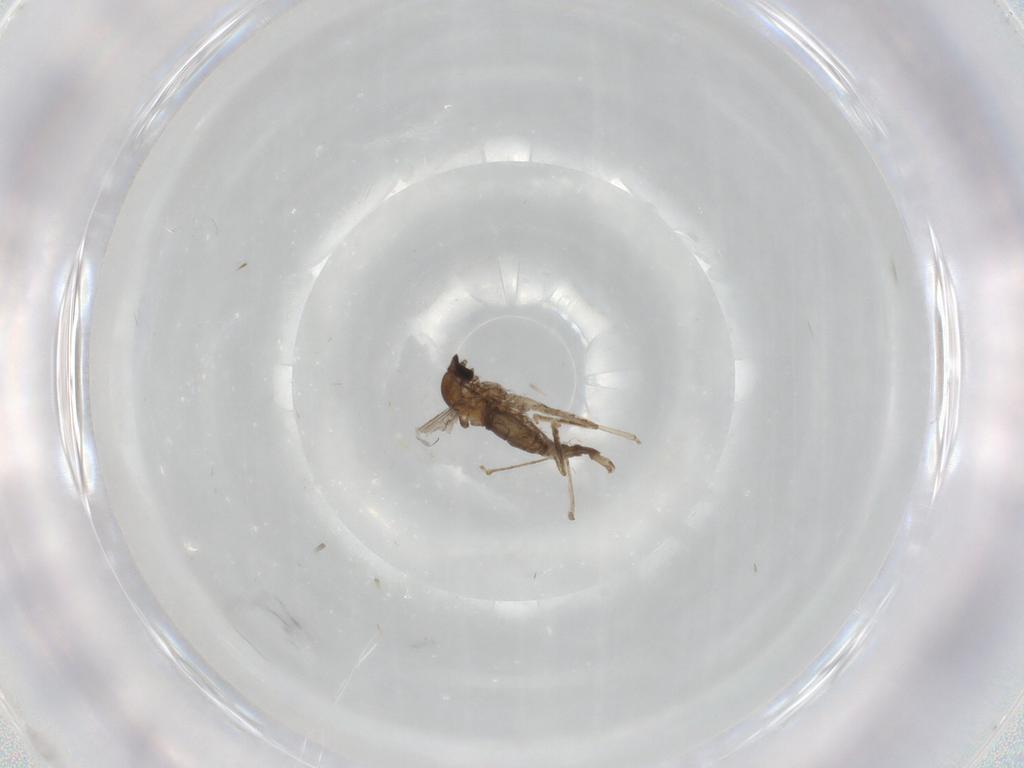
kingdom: Animalia
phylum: Arthropoda
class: Insecta
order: Diptera
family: Cecidomyiidae
